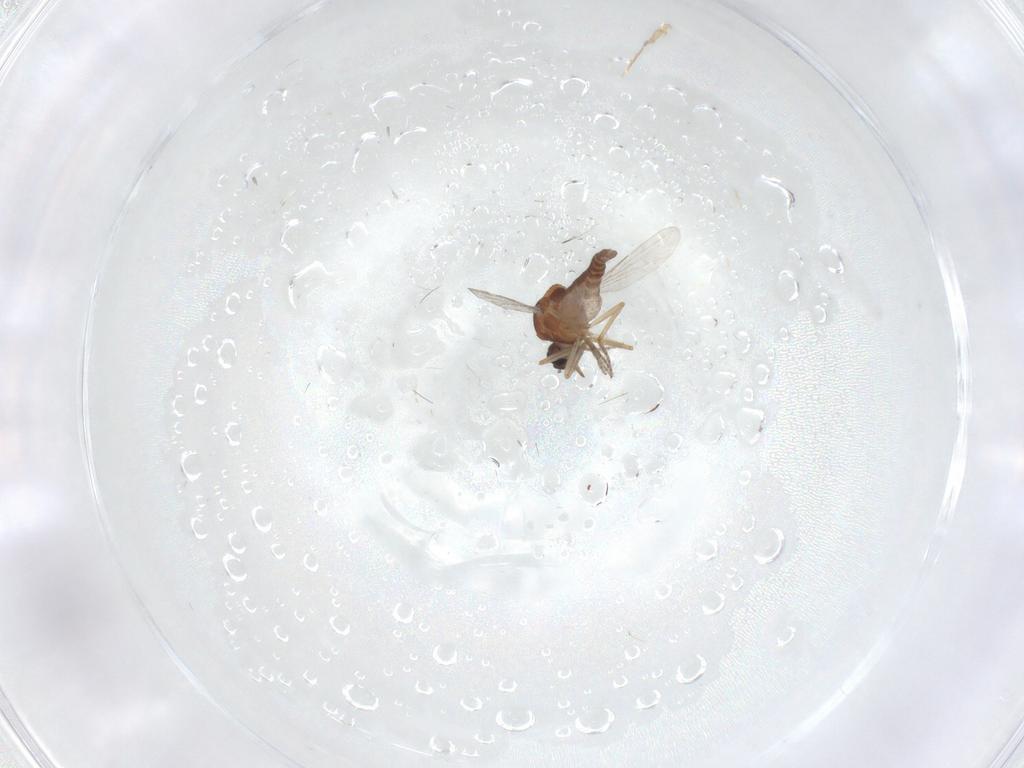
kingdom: Animalia
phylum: Arthropoda
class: Insecta
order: Diptera
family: Ceratopogonidae
